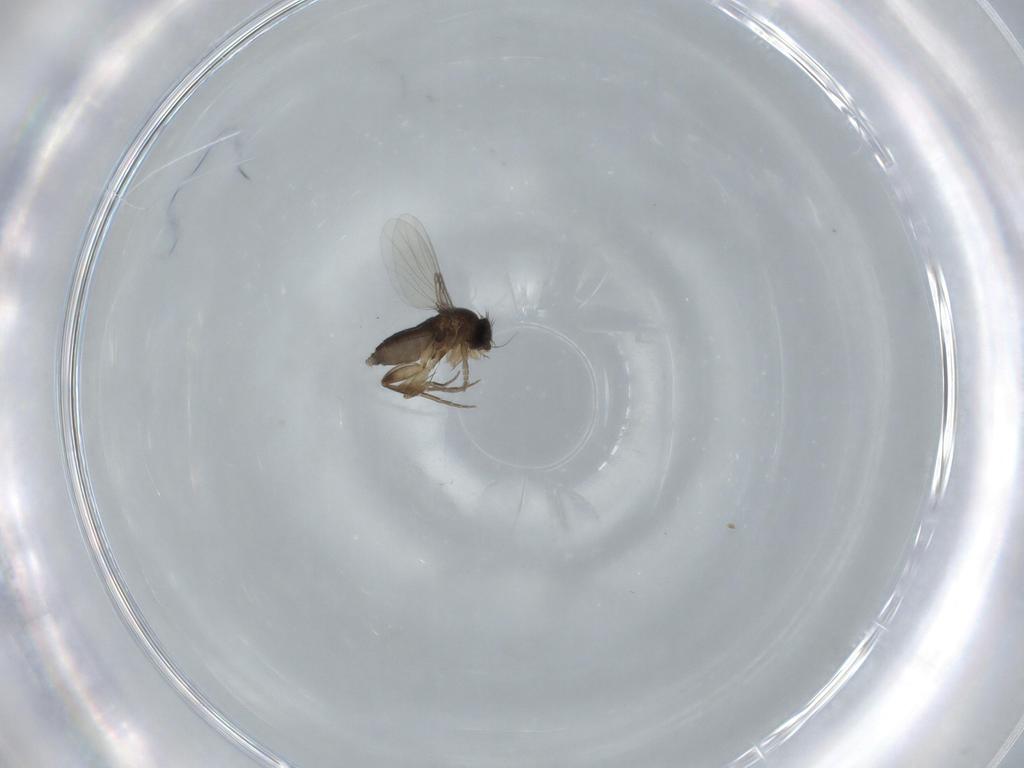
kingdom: Animalia
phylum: Arthropoda
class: Insecta
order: Diptera
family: Phoridae
